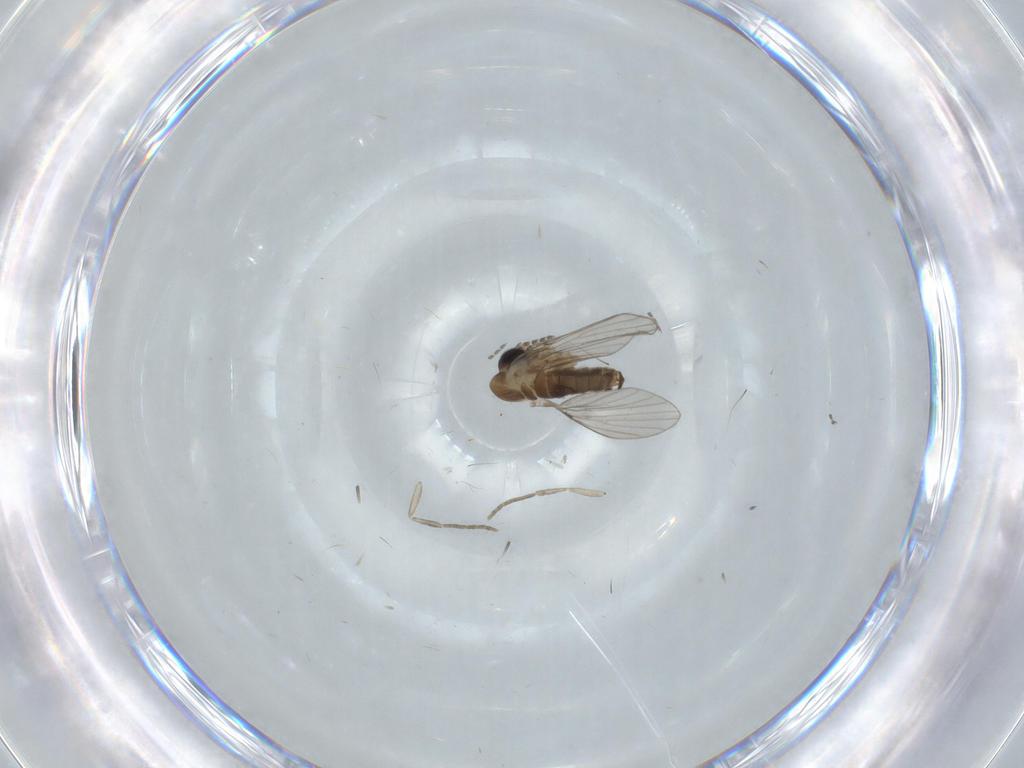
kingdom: Animalia
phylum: Arthropoda
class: Insecta
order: Diptera
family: Psychodidae
